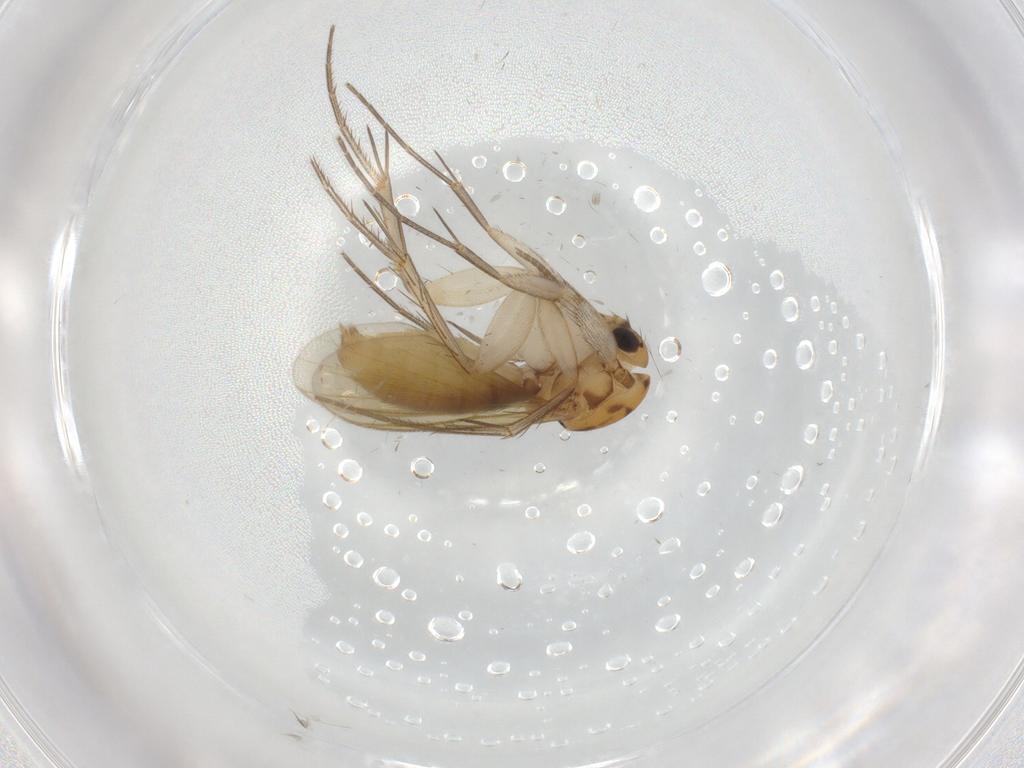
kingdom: Animalia
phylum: Arthropoda
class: Insecta
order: Diptera
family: Mycetophilidae
